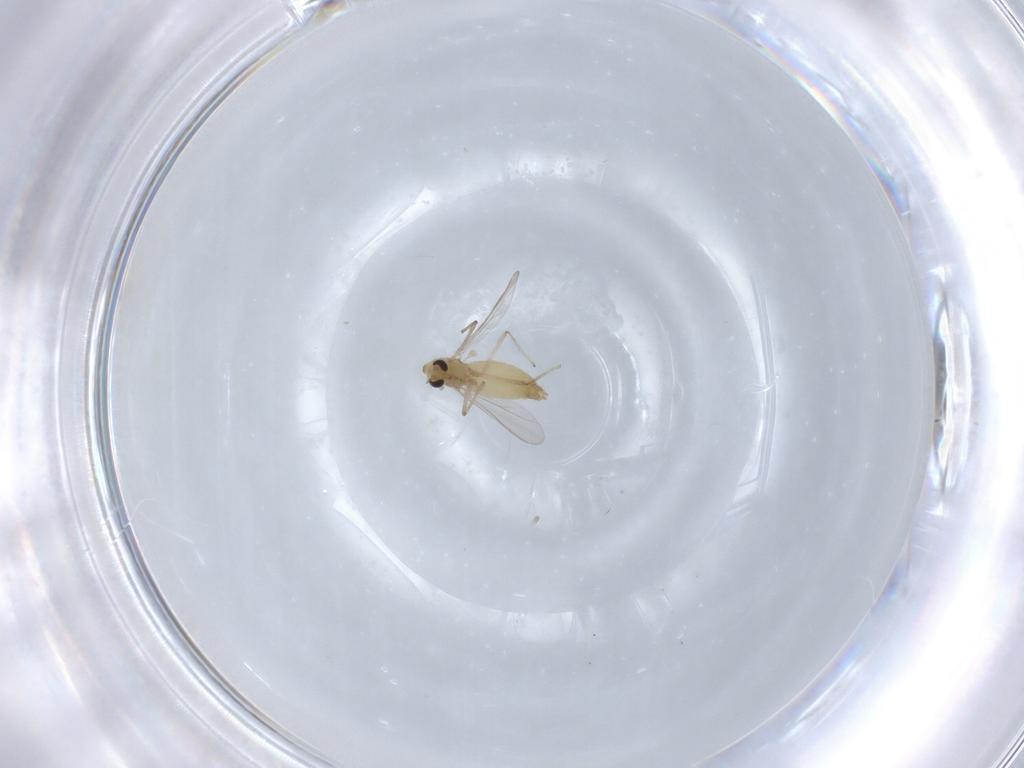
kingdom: Animalia
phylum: Arthropoda
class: Insecta
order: Diptera
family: Chironomidae
